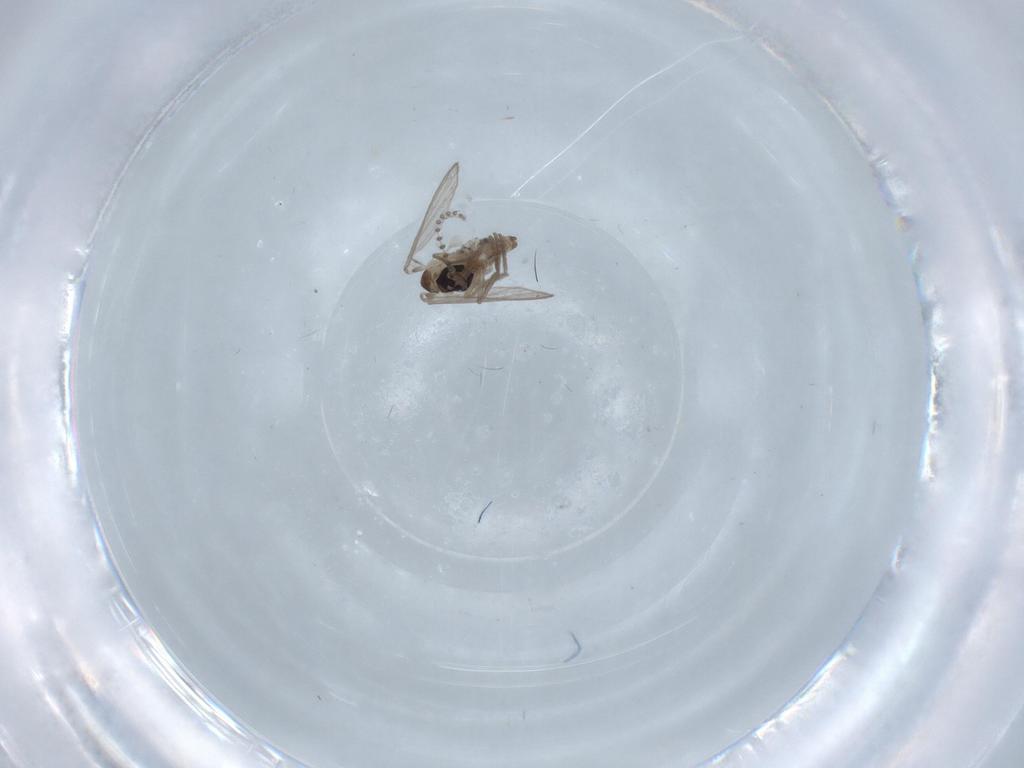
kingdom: Animalia
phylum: Arthropoda
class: Insecta
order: Diptera
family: Psychodidae
